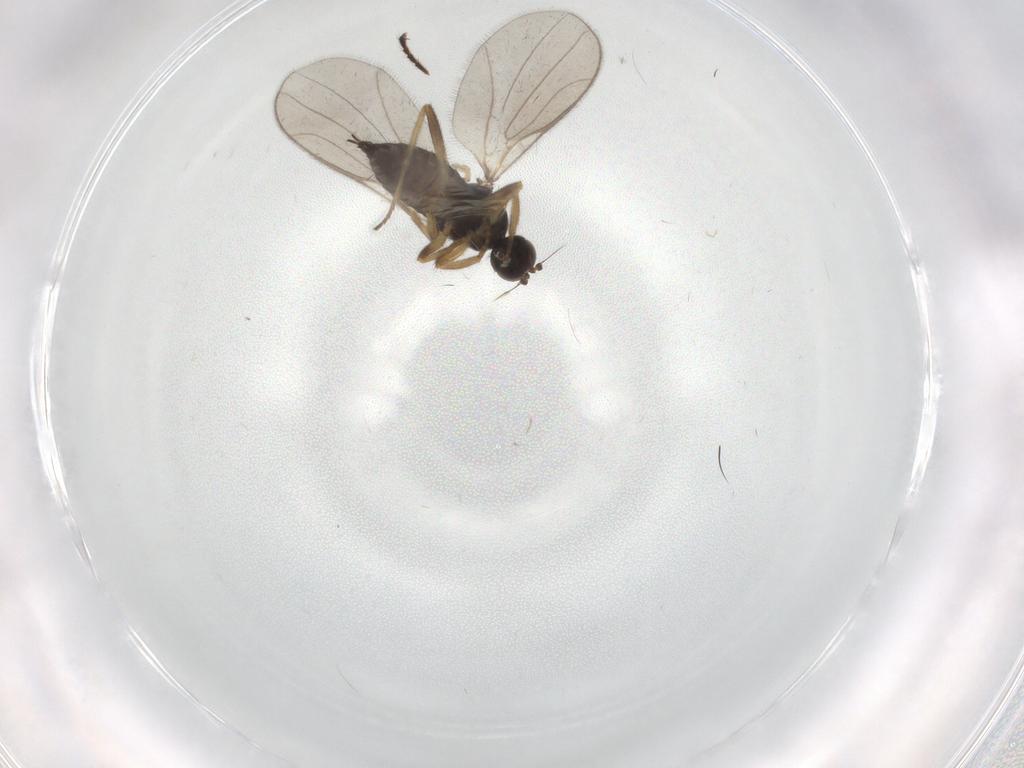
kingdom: Animalia
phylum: Arthropoda
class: Insecta
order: Diptera
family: Hybotidae
